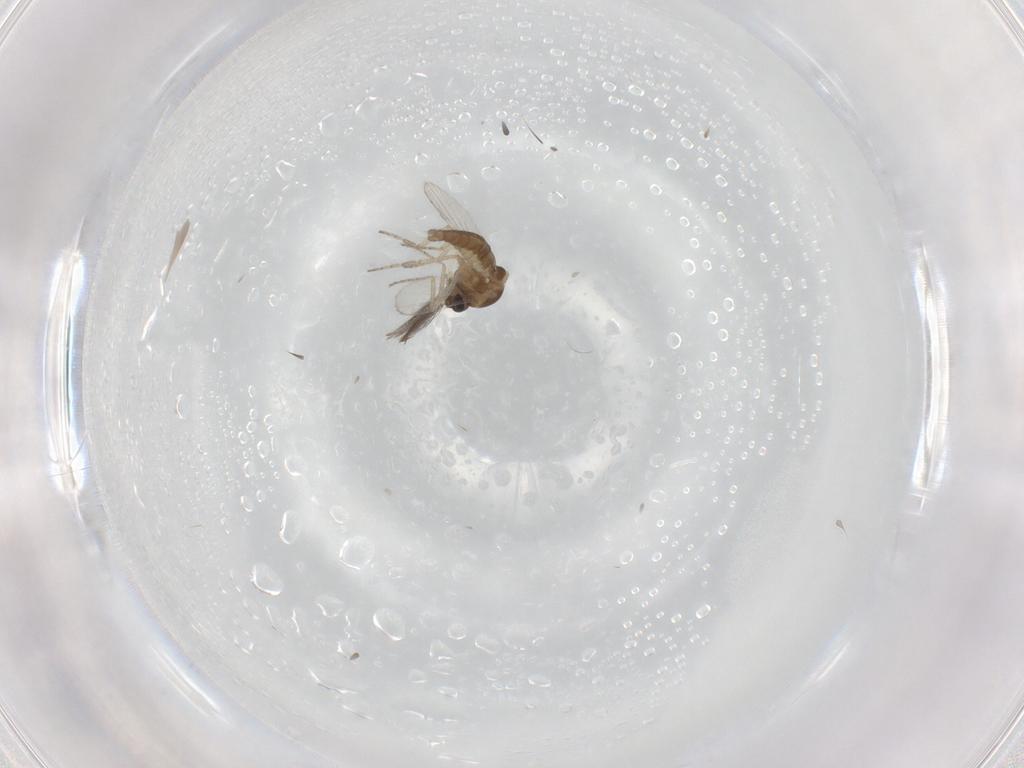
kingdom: Animalia
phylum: Arthropoda
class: Insecta
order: Diptera
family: Ceratopogonidae
